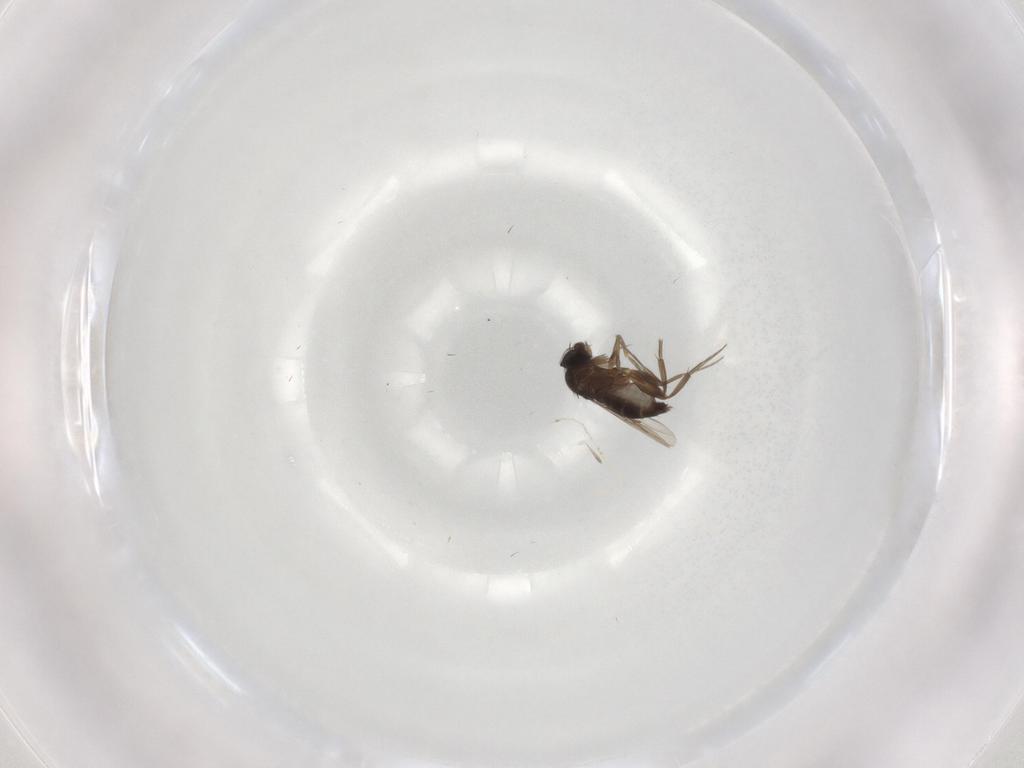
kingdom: Animalia
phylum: Arthropoda
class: Insecta
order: Diptera
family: Cecidomyiidae
